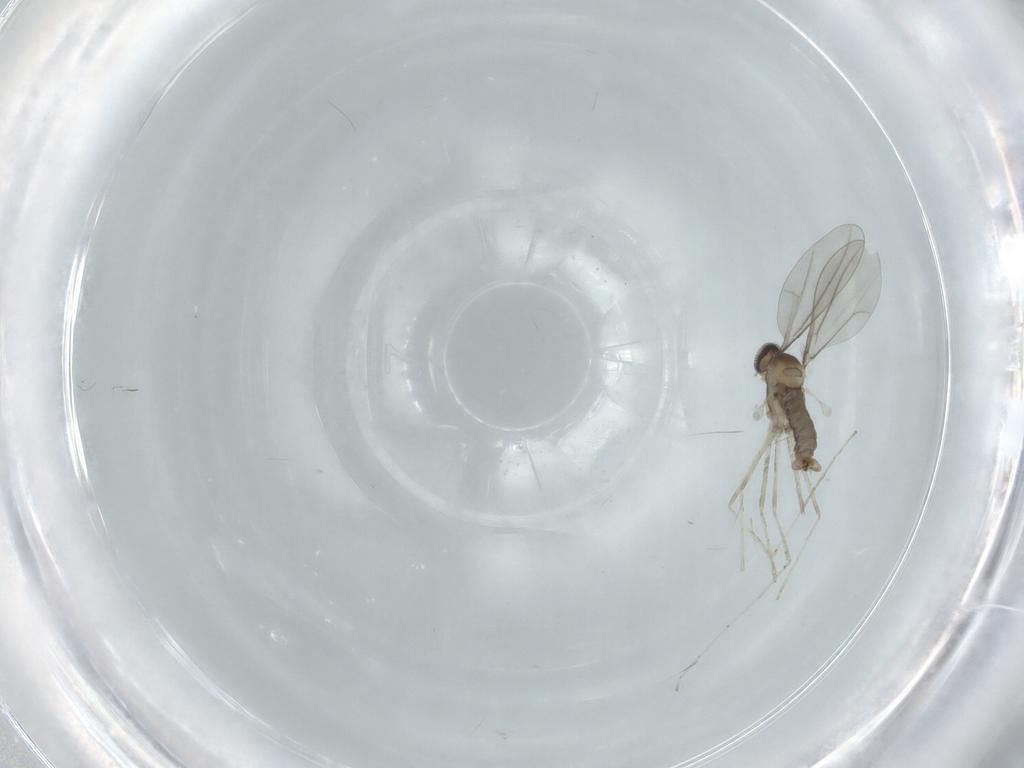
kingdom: Animalia
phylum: Arthropoda
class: Insecta
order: Diptera
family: Cecidomyiidae
